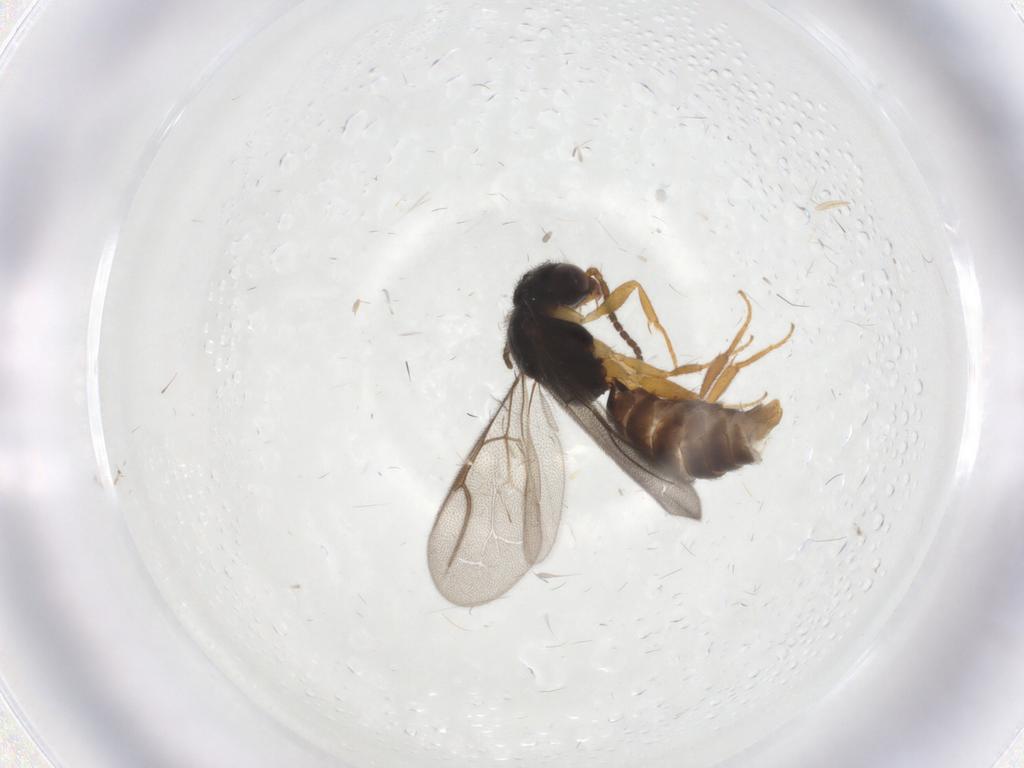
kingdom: Animalia
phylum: Arthropoda
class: Insecta
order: Hymenoptera
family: Bethylidae
